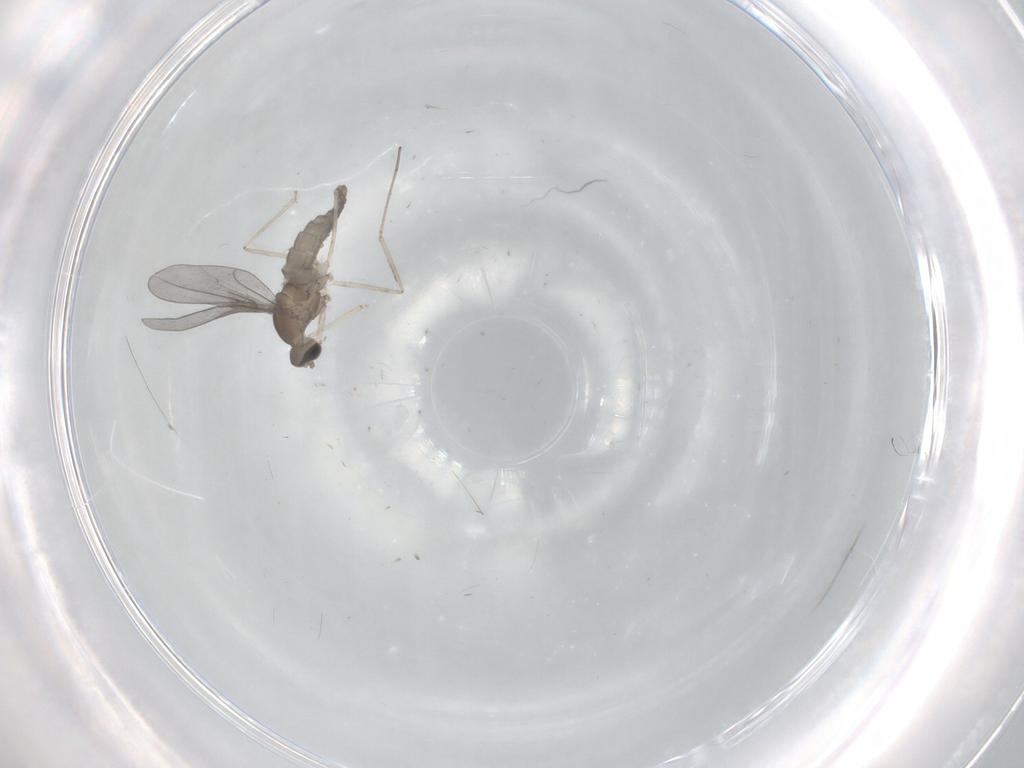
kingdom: Animalia
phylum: Arthropoda
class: Insecta
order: Diptera
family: Cecidomyiidae
